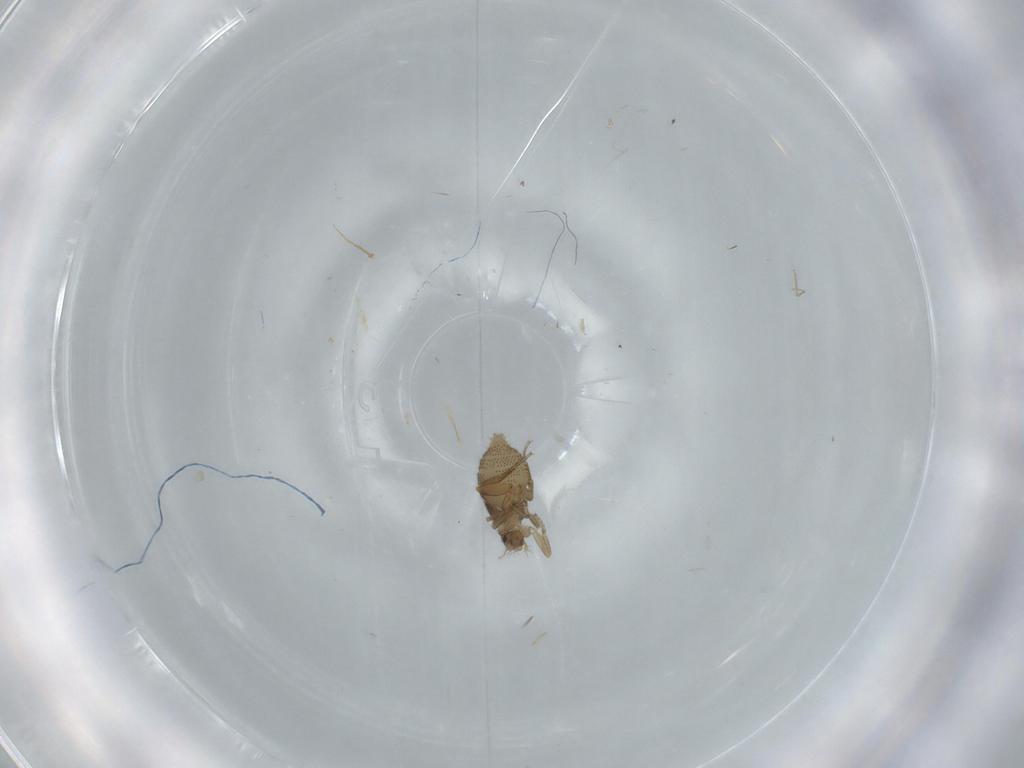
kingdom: Animalia
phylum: Arthropoda
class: Insecta
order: Diptera
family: Phoridae
